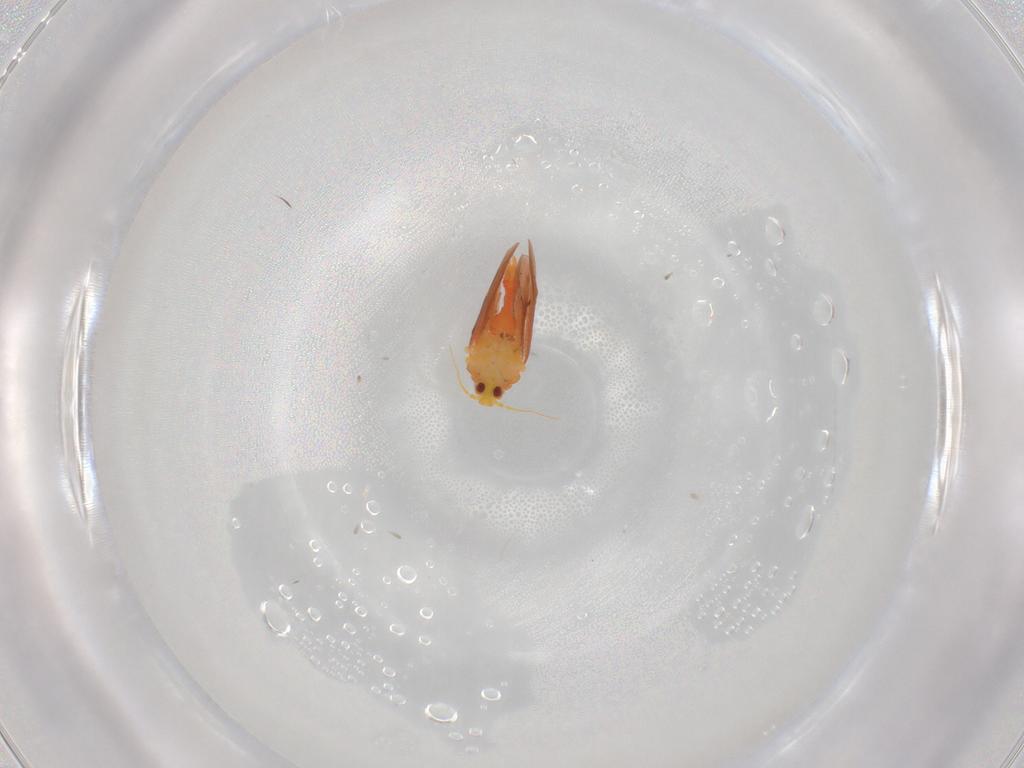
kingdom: Animalia
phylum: Arthropoda
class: Insecta
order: Hemiptera
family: Aleyrodidae
